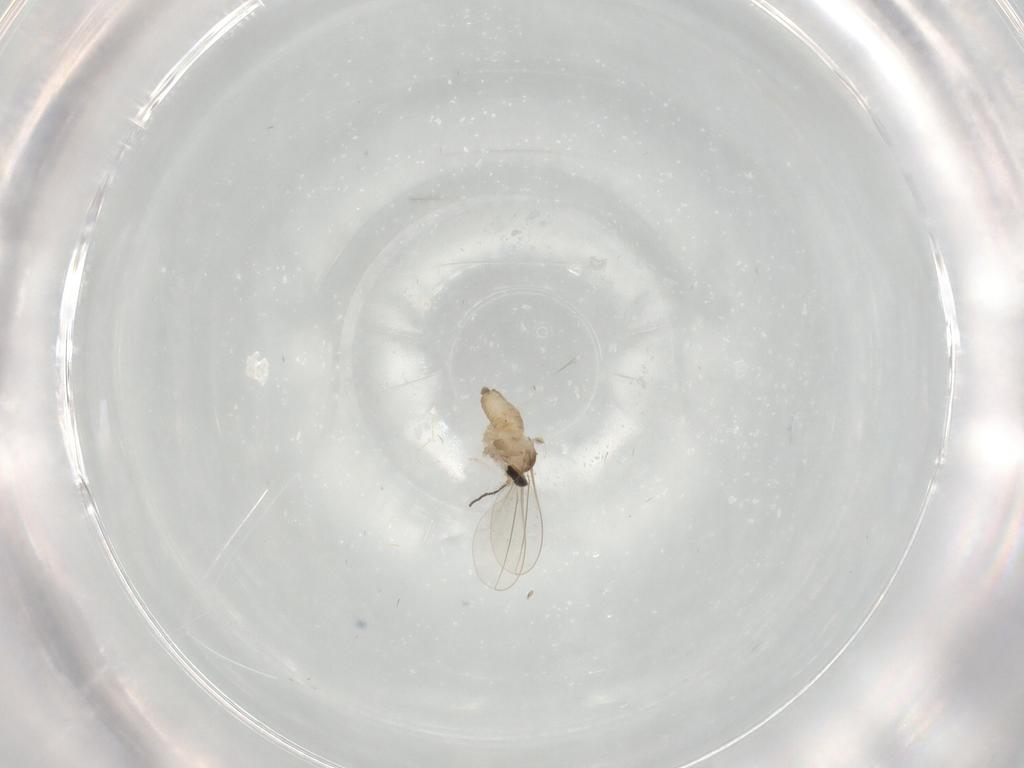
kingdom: Animalia
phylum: Arthropoda
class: Insecta
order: Diptera
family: Cecidomyiidae
